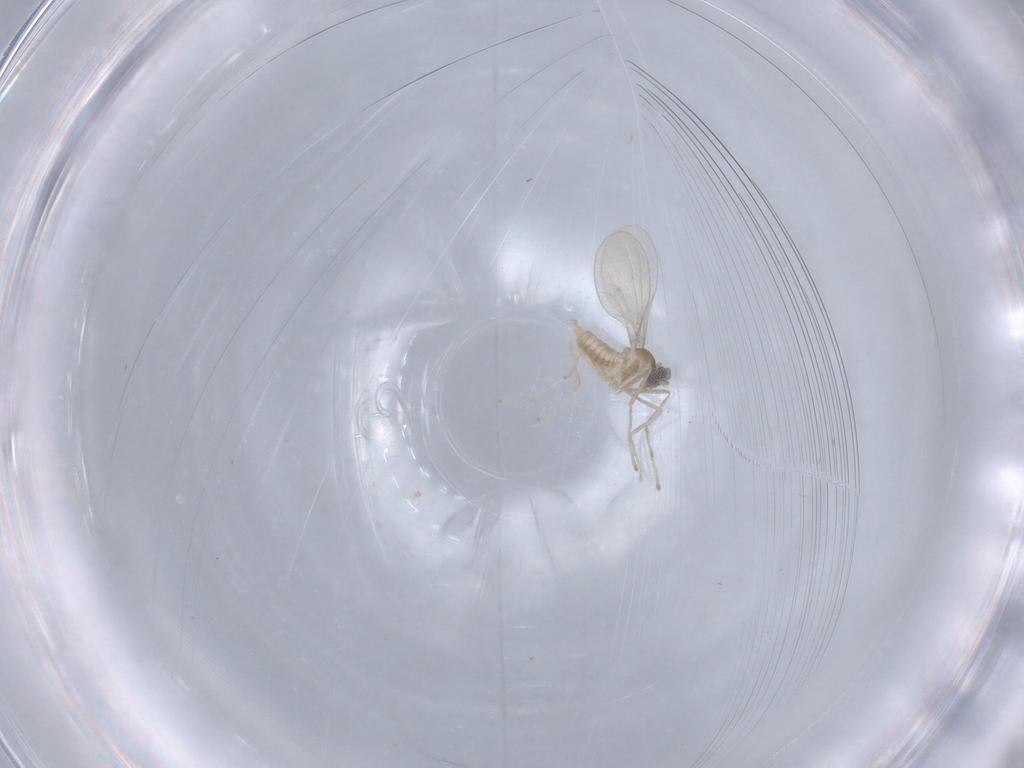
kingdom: Animalia
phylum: Arthropoda
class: Insecta
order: Diptera
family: Cecidomyiidae
